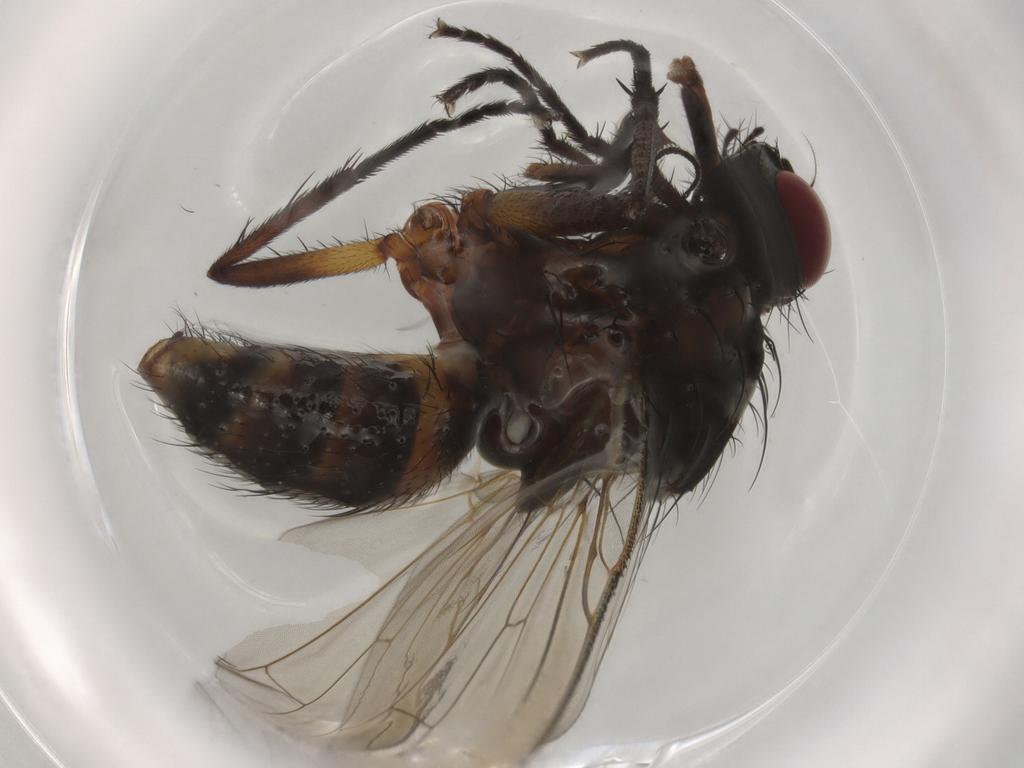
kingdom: Animalia
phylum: Arthropoda
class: Insecta
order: Diptera
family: Anthomyiidae
